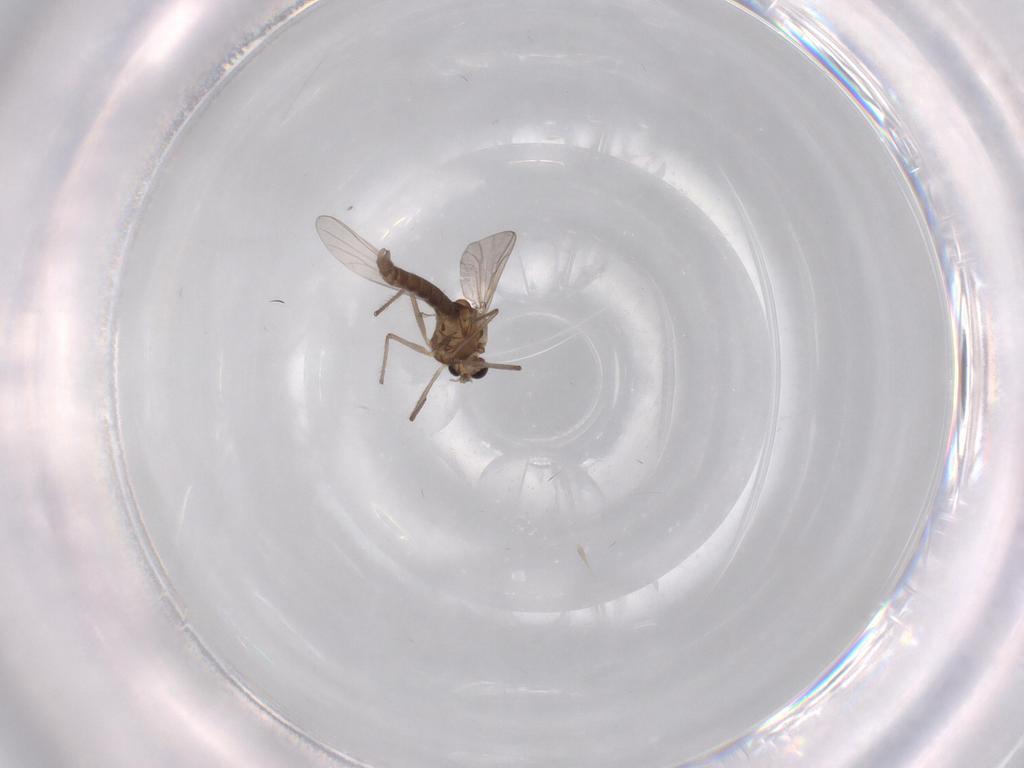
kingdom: Animalia
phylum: Arthropoda
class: Insecta
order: Diptera
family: Chironomidae
